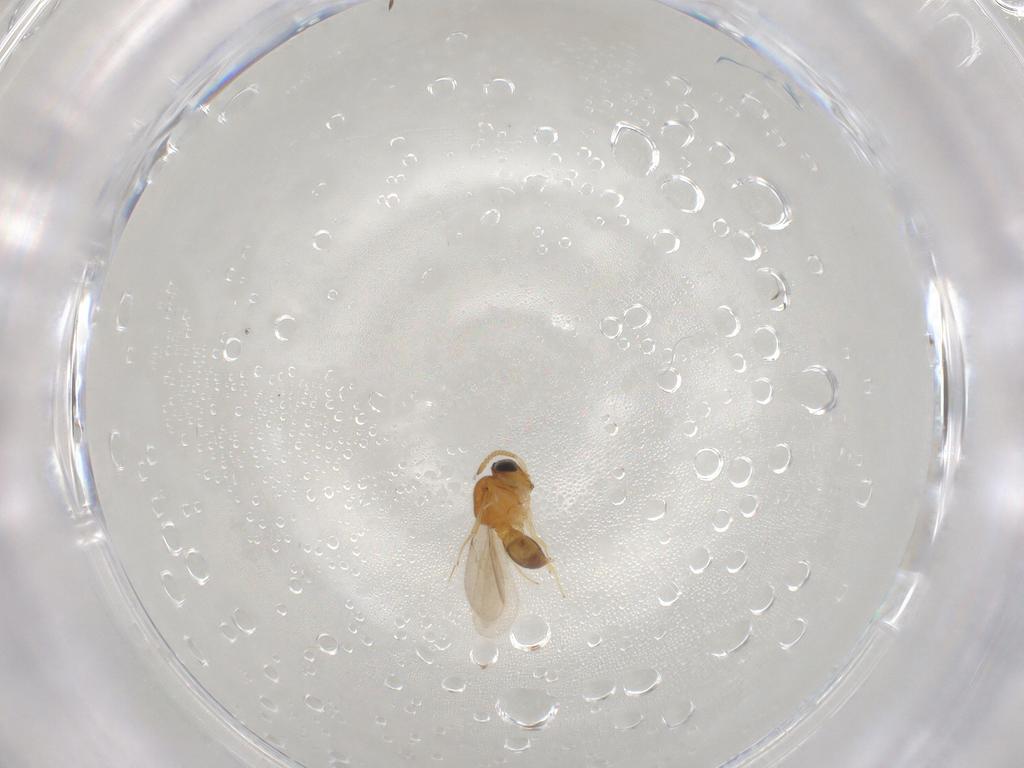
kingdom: Animalia
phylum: Arthropoda
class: Insecta
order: Hymenoptera
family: Scelionidae
